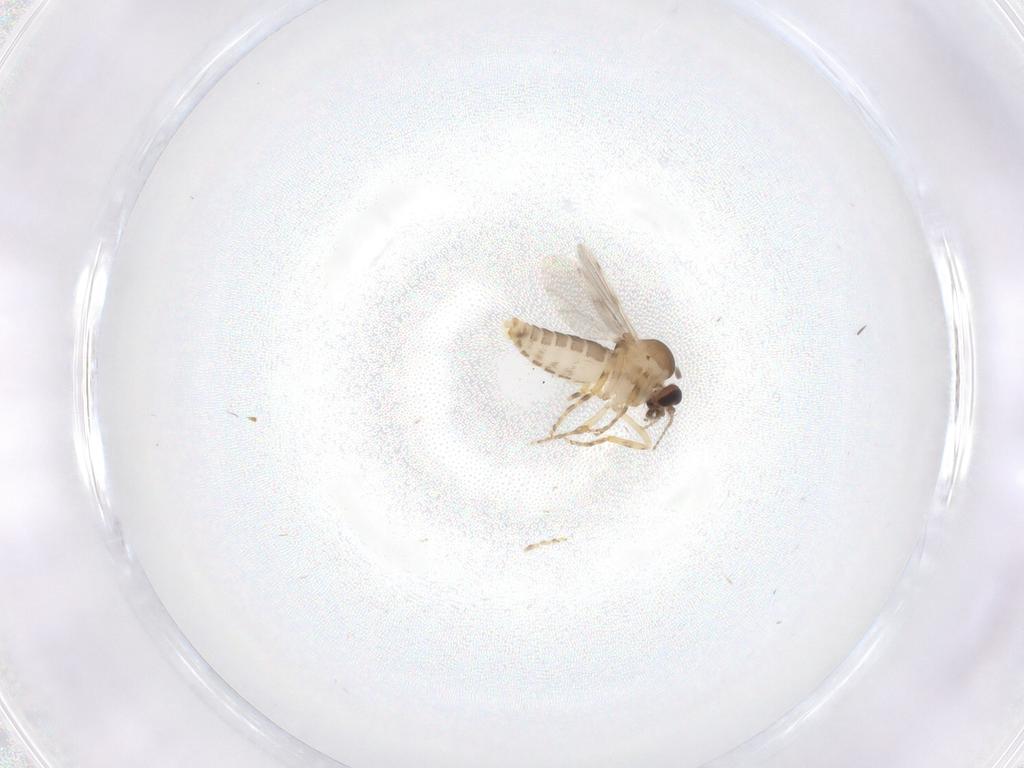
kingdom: Animalia
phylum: Arthropoda
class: Insecta
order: Diptera
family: Ceratopogonidae
